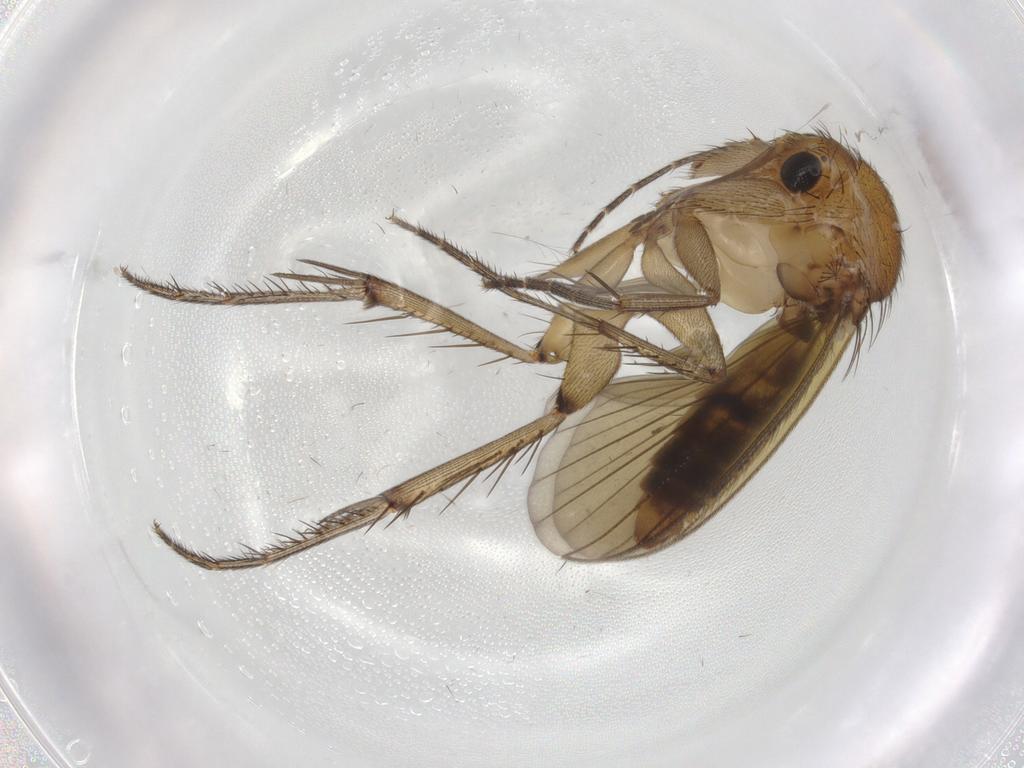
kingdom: Animalia
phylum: Arthropoda
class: Insecta
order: Diptera
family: Mycetophilidae
